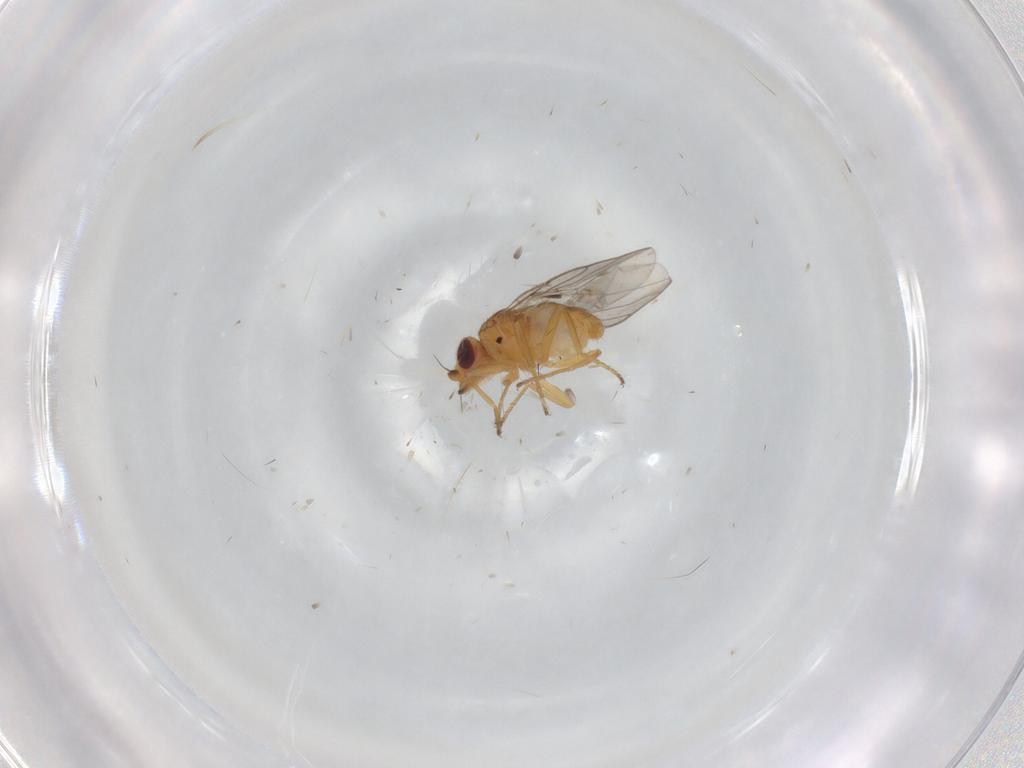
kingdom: Animalia
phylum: Arthropoda
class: Insecta
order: Diptera
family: Chloropidae
